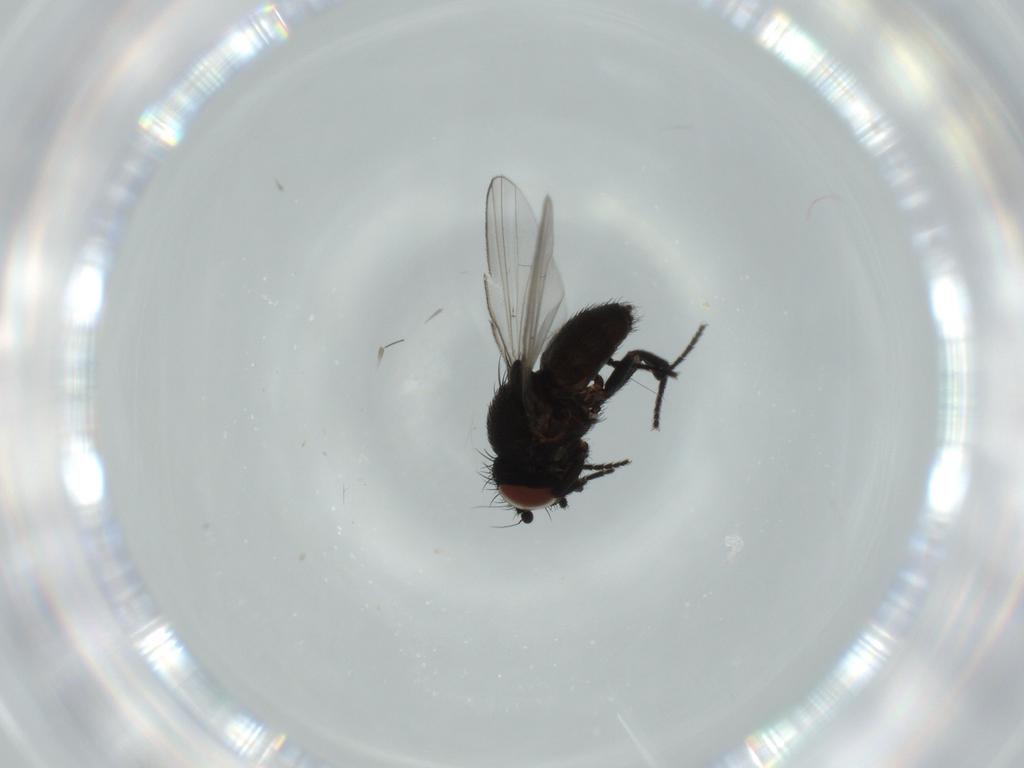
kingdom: Animalia
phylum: Arthropoda
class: Insecta
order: Diptera
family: Milichiidae
